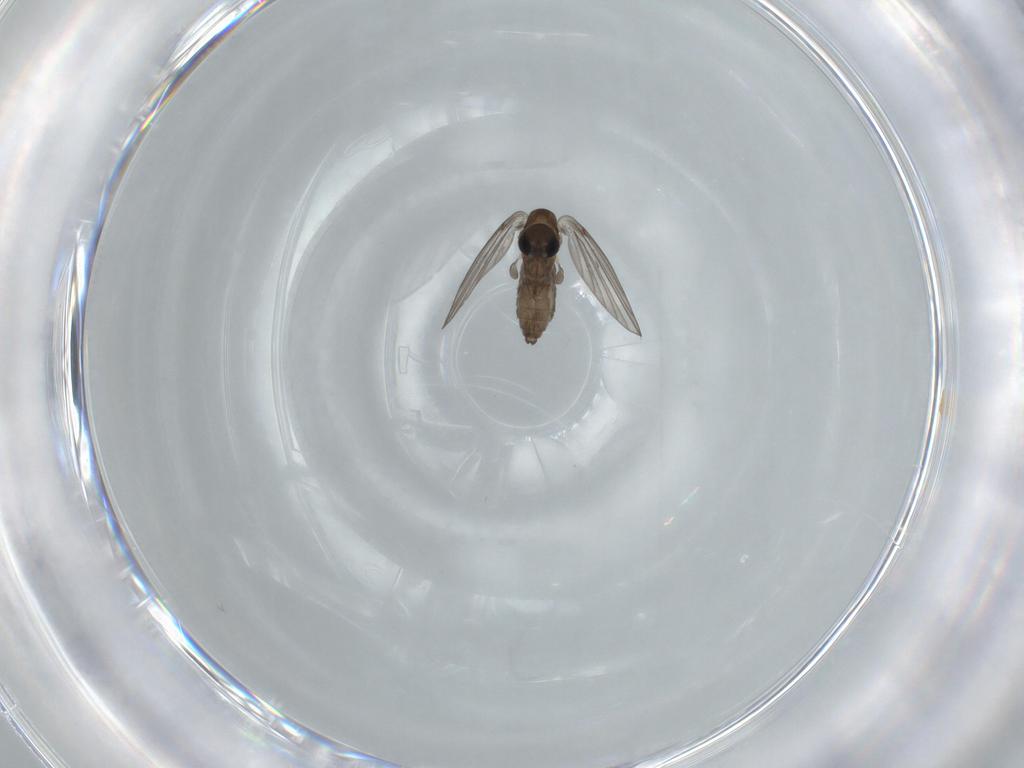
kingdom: Animalia
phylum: Arthropoda
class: Insecta
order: Diptera
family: Psychodidae
